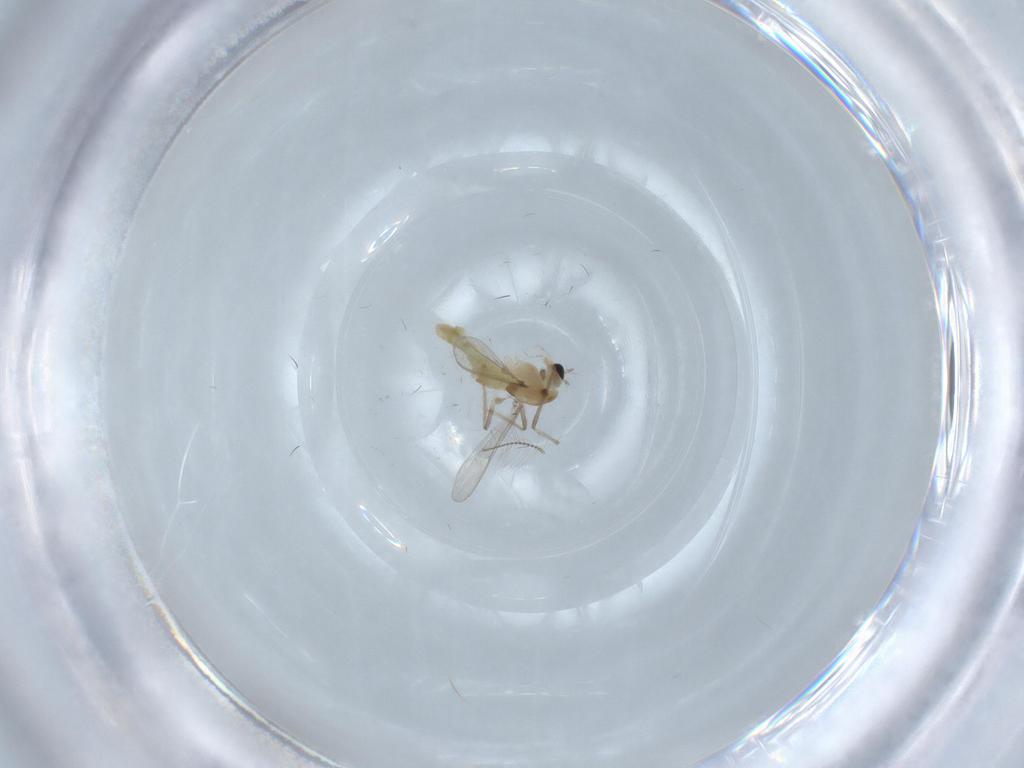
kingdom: Animalia
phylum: Arthropoda
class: Insecta
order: Diptera
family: Chironomidae
